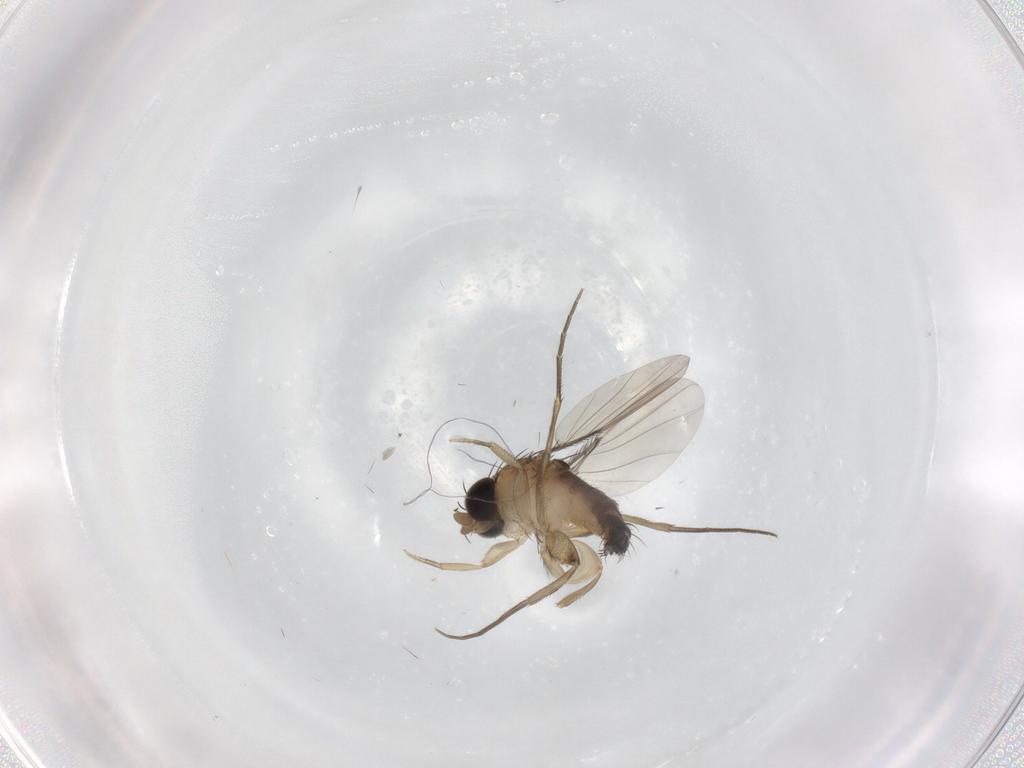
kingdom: Animalia
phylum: Arthropoda
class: Insecta
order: Diptera
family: Phoridae
